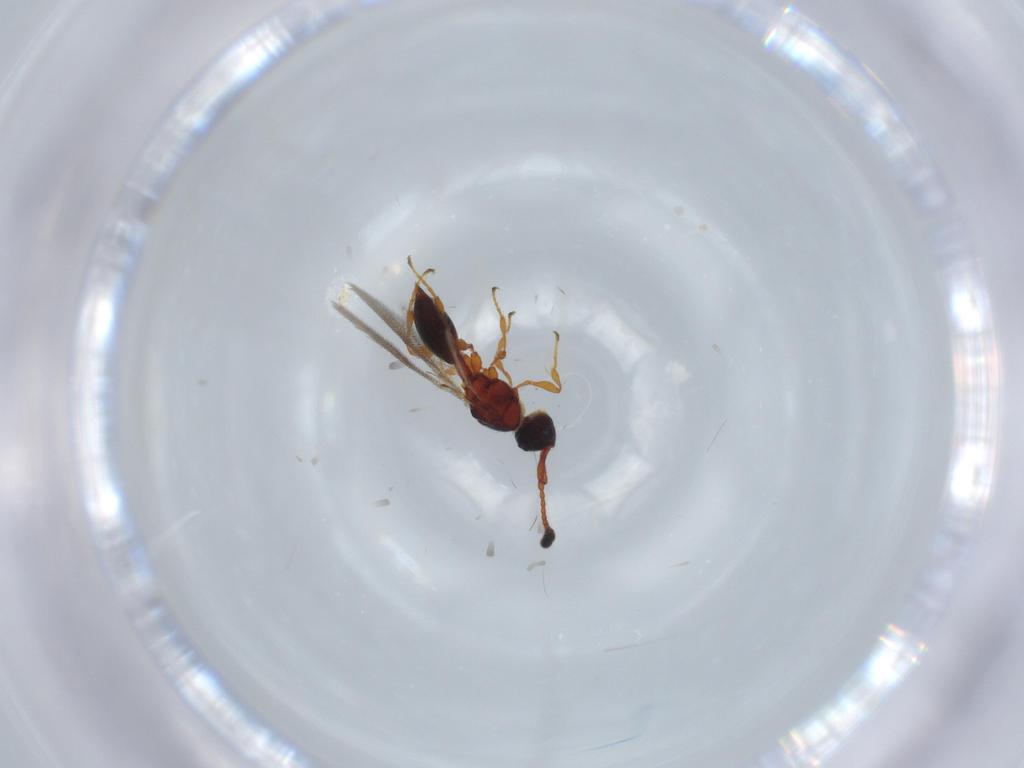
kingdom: Animalia
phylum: Arthropoda
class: Insecta
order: Hymenoptera
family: Diapriidae
